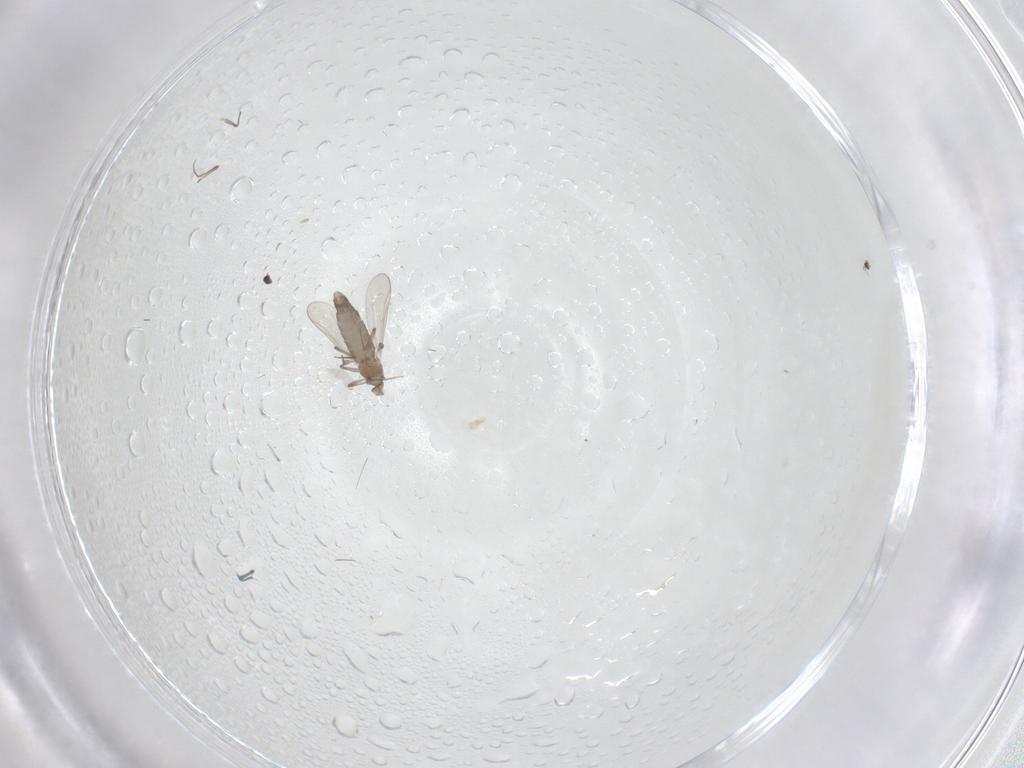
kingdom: Animalia
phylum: Arthropoda
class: Insecta
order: Diptera
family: Chironomidae
